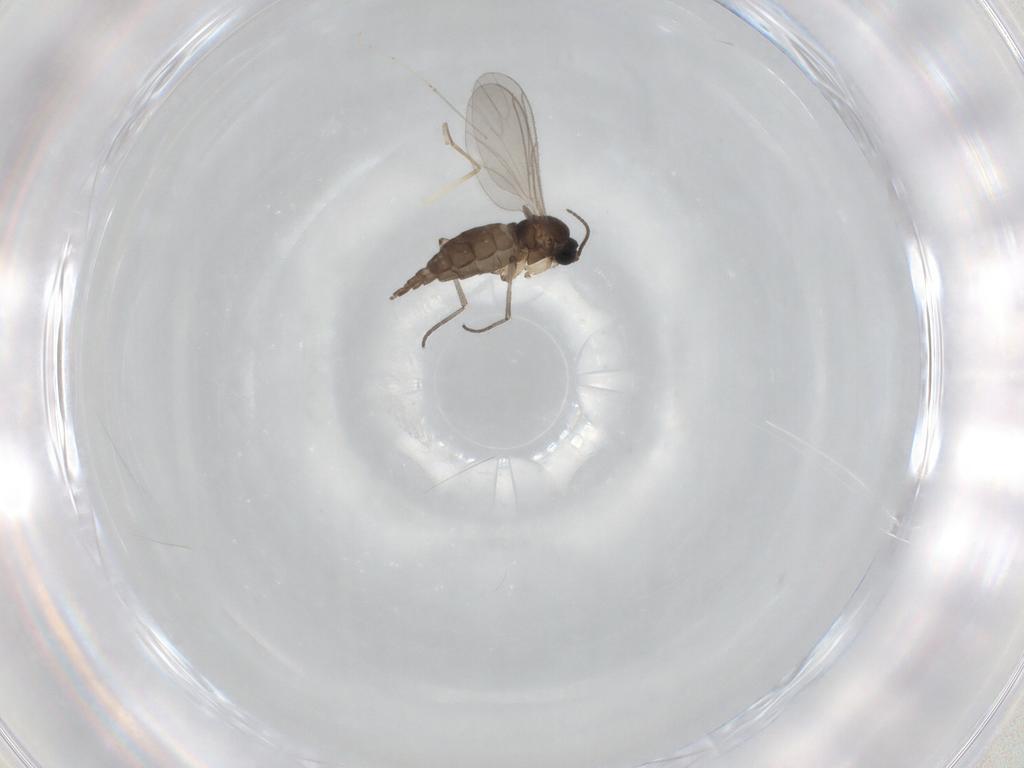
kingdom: Animalia
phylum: Arthropoda
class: Insecta
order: Diptera
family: Sciaridae
